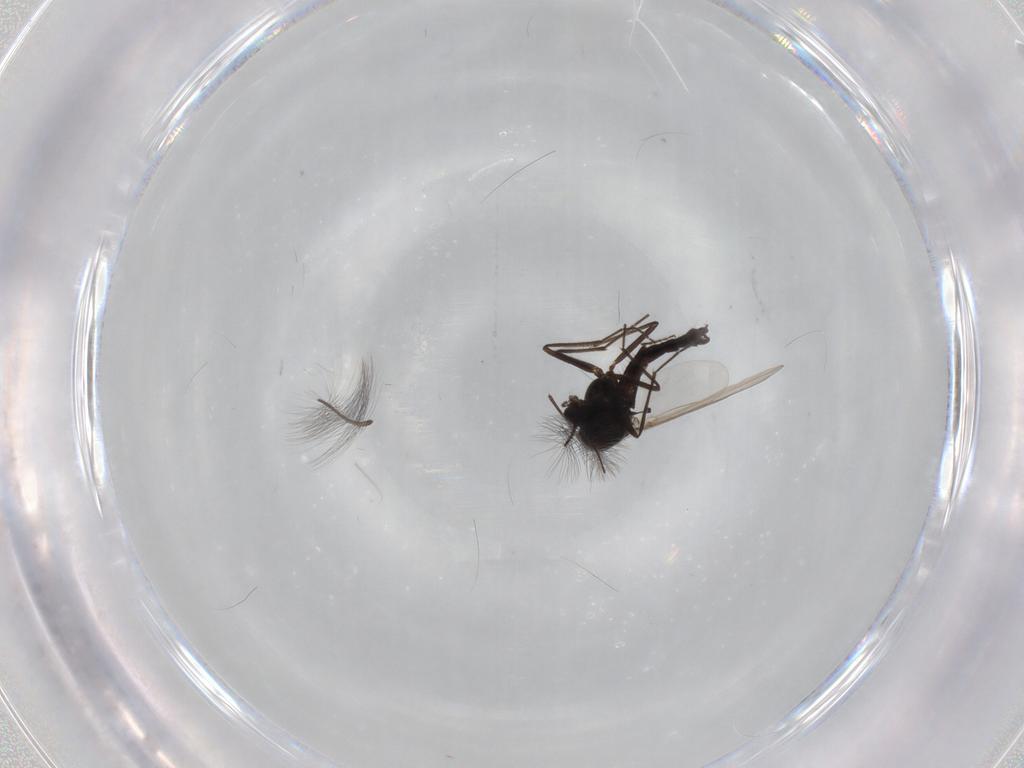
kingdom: Animalia
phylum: Arthropoda
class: Insecta
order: Diptera
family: Chironomidae
